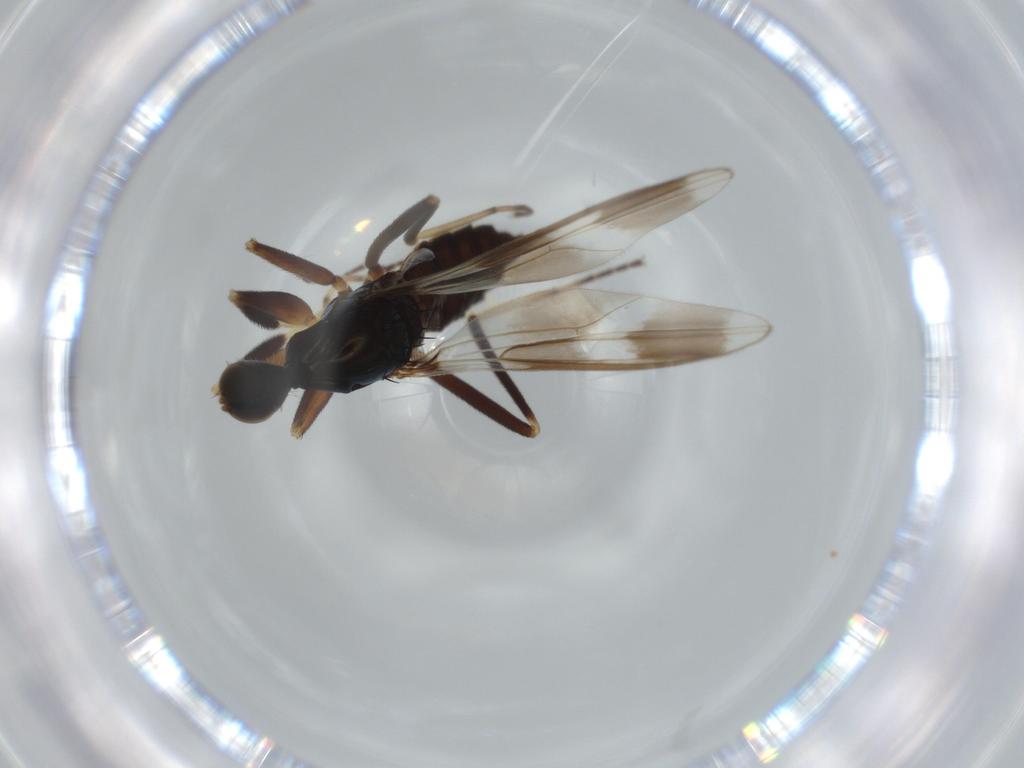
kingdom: Animalia
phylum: Arthropoda
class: Insecta
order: Diptera
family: Hybotidae
